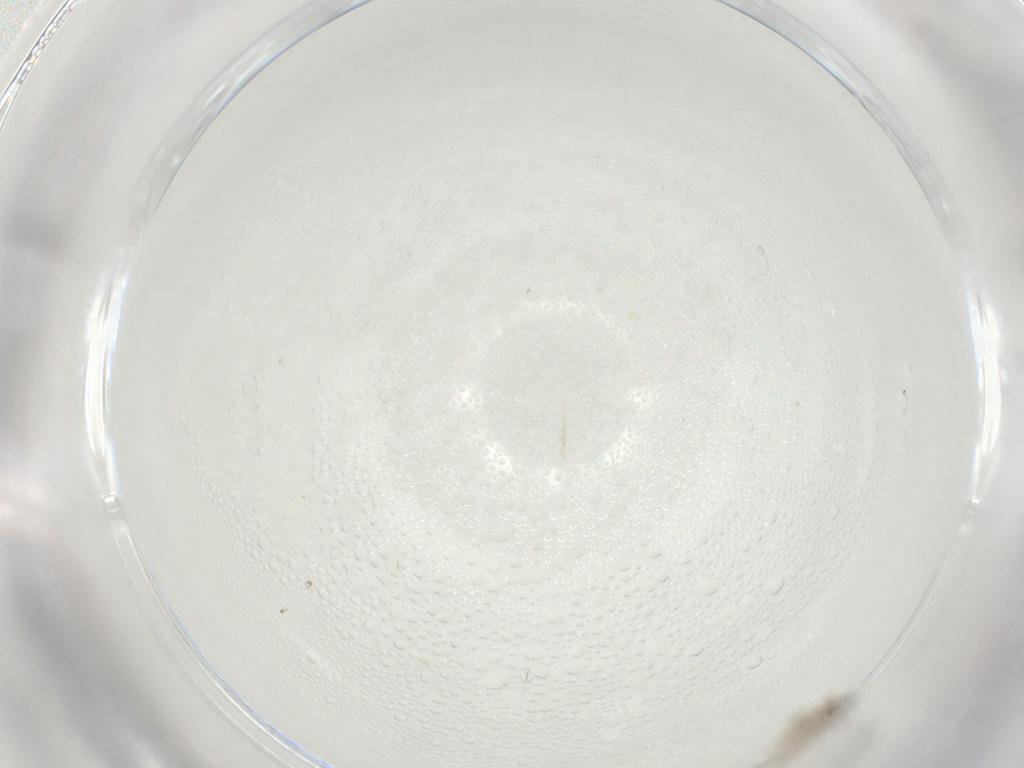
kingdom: Animalia
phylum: Arthropoda
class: Insecta
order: Diptera
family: Cecidomyiidae
